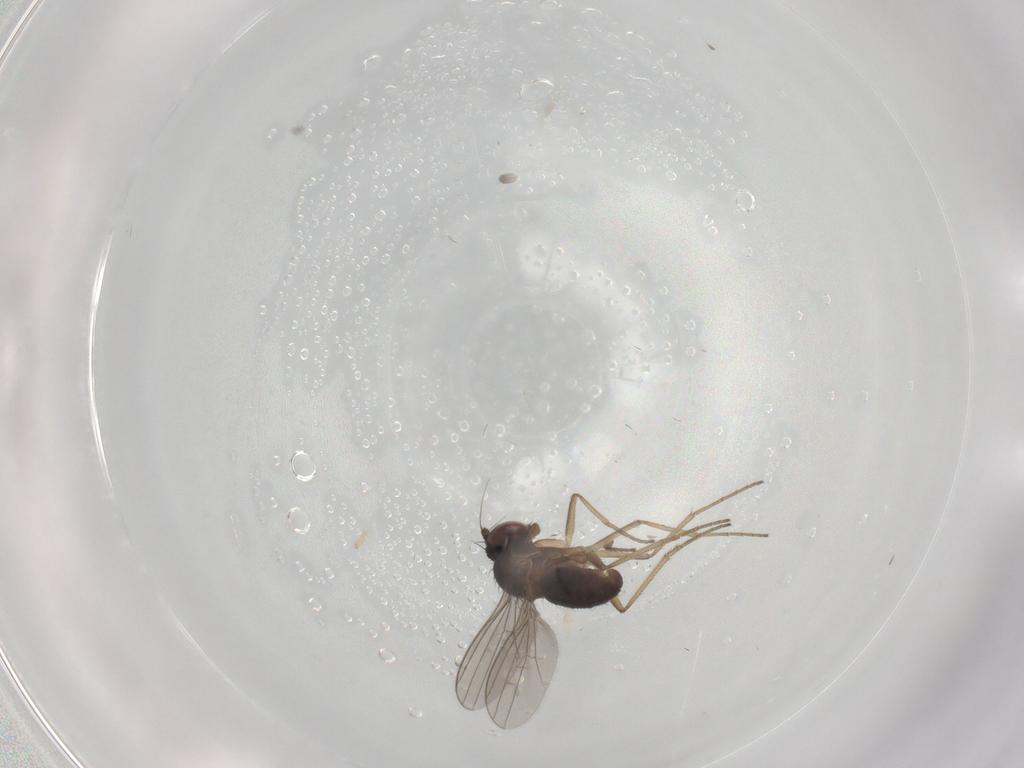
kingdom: Animalia
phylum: Arthropoda
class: Insecta
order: Diptera
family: Dolichopodidae
